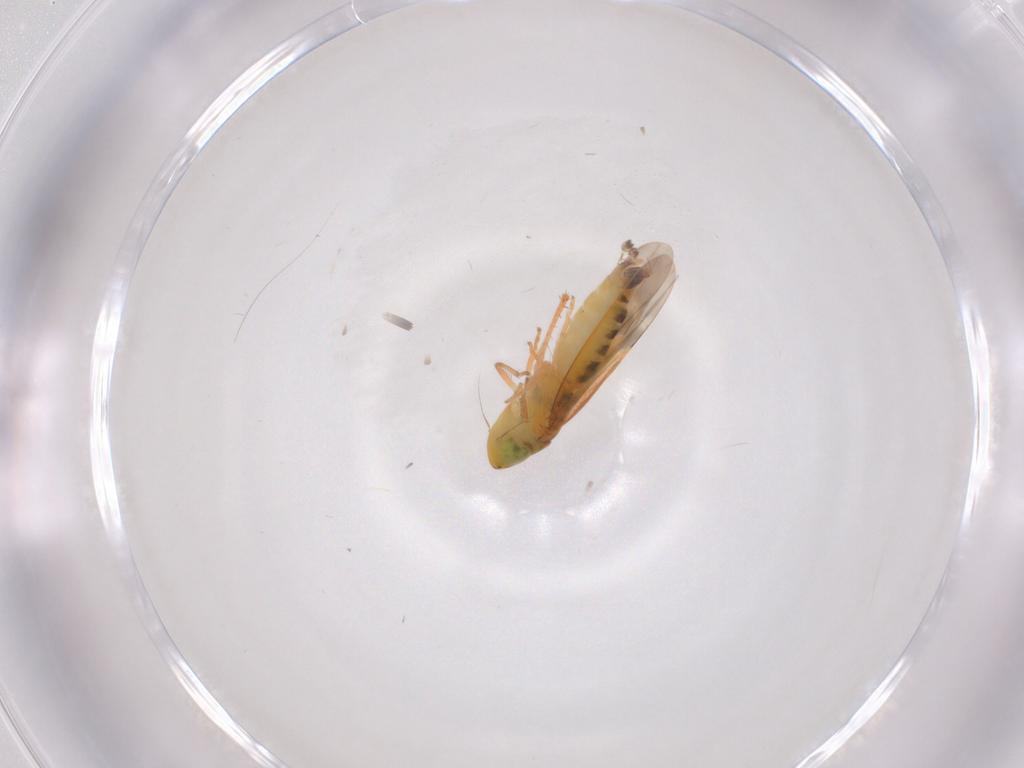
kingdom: Animalia
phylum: Arthropoda
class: Insecta
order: Hemiptera
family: Cicadellidae
